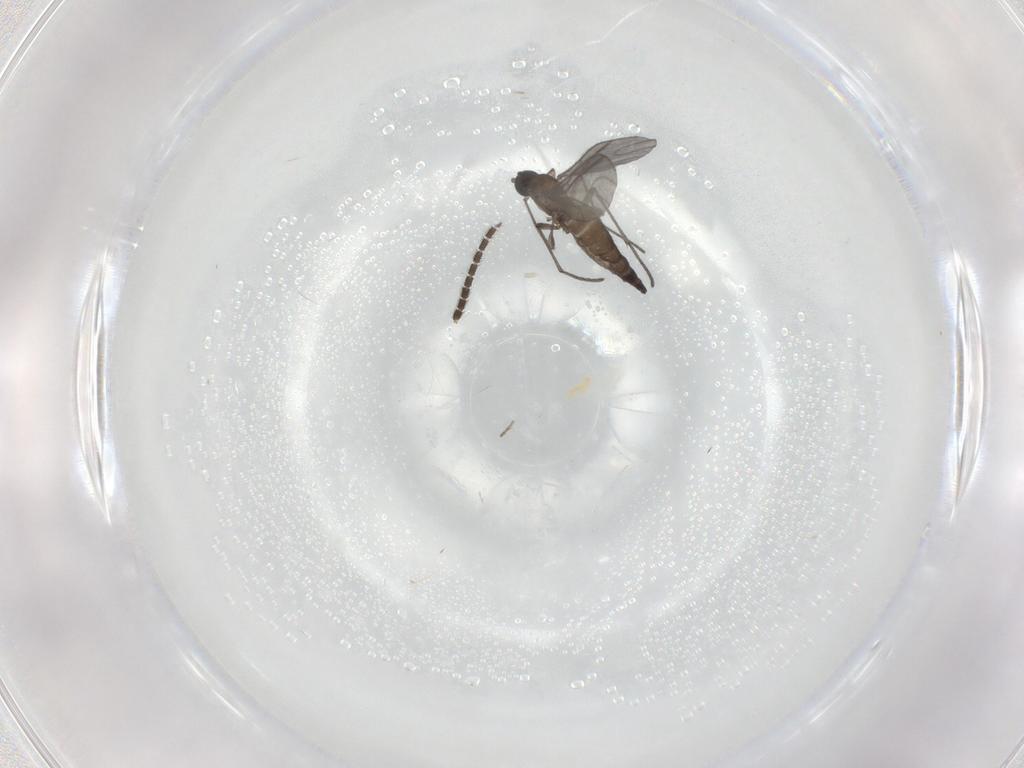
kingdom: Animalia
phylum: Arthropoda
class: Insecta
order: Diptera
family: Sciaridae
